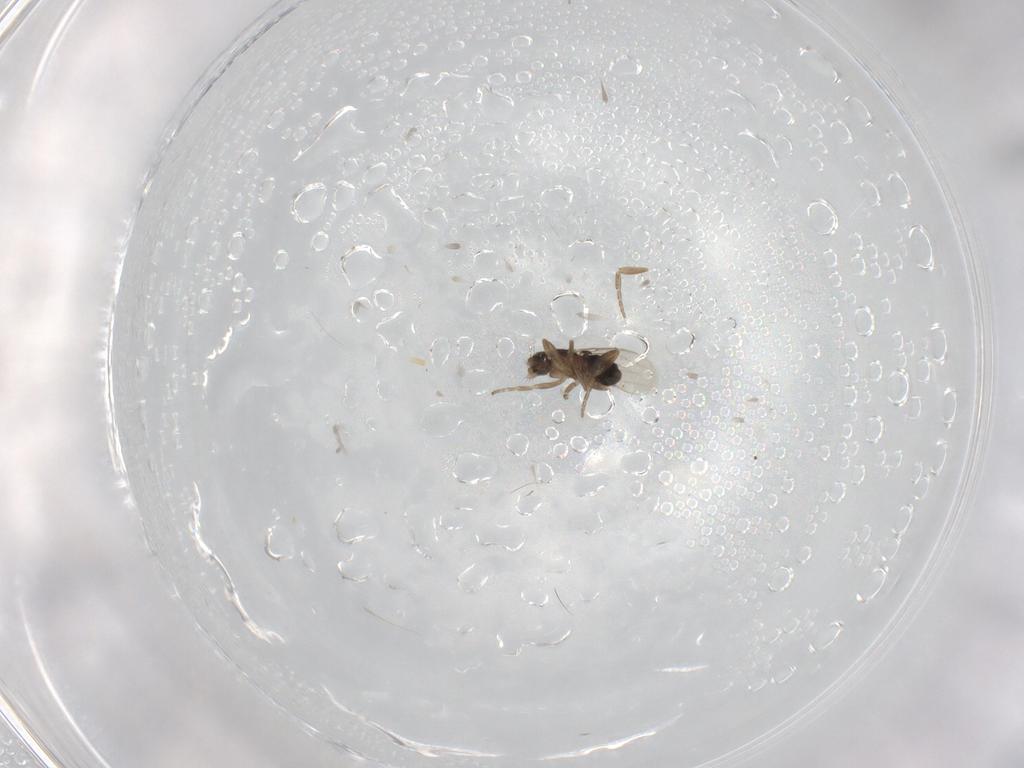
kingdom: Animalia
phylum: Arthropoda
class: Insecta
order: Diptera
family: Phoridae
